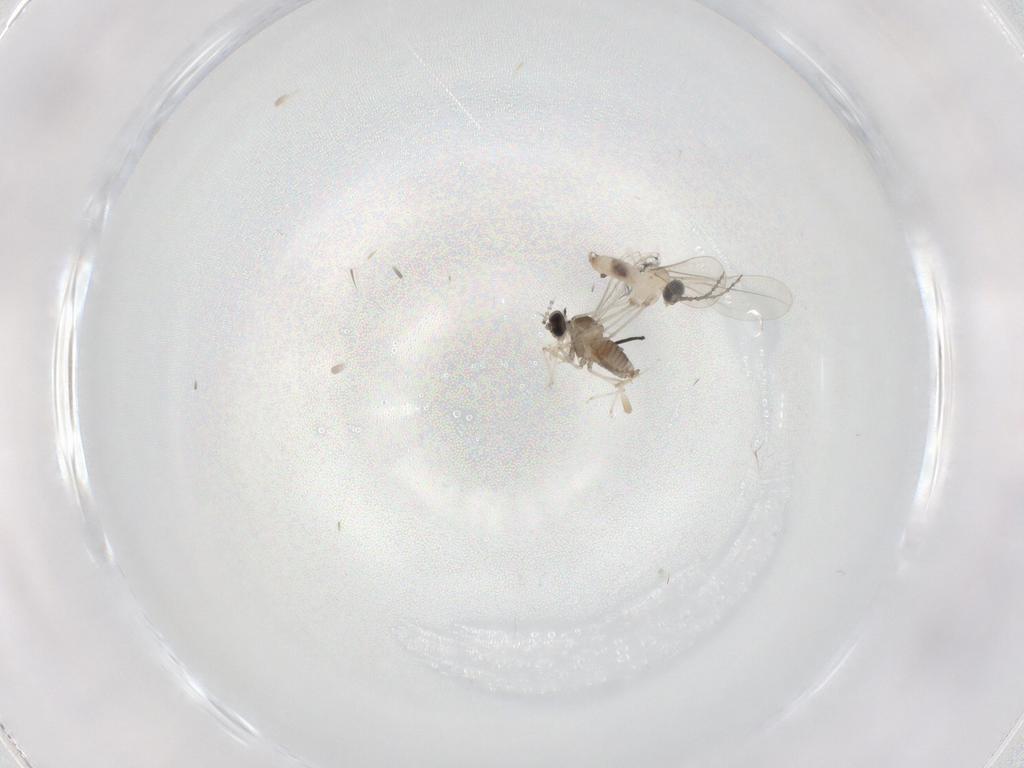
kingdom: Animalia
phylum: Arthropoda
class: Insecta
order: Diptera
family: Cecidomyiidae
